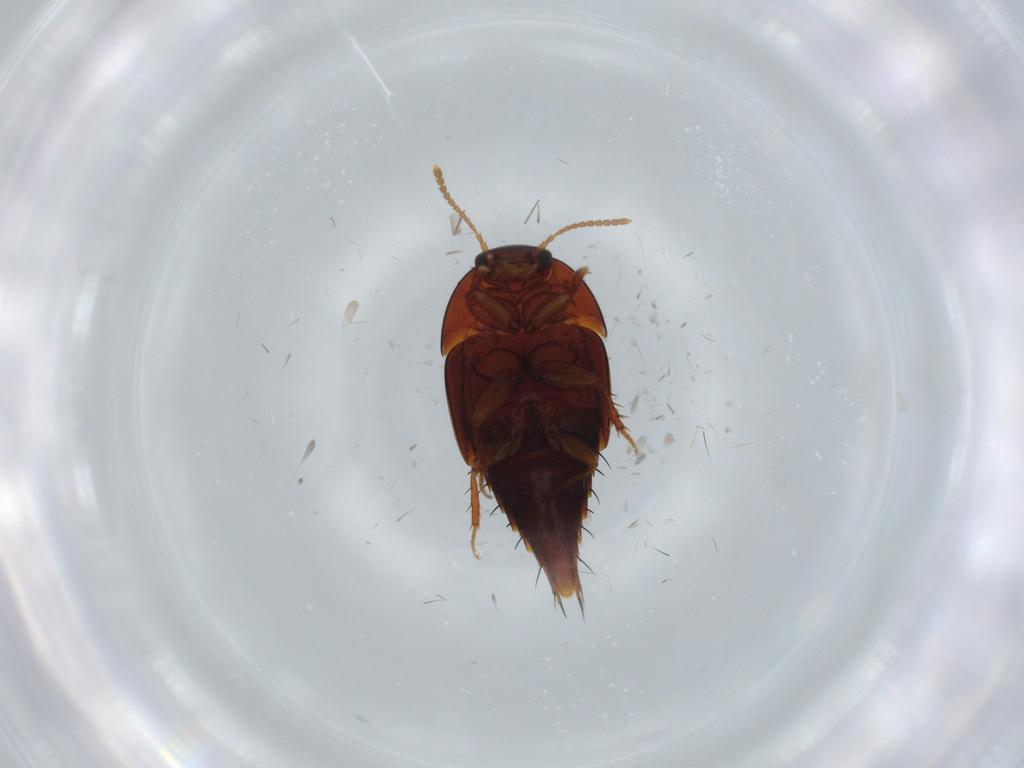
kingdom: Animalia
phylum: Arthropoda
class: Insecta
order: Coleoptera
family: Staphylinidae
